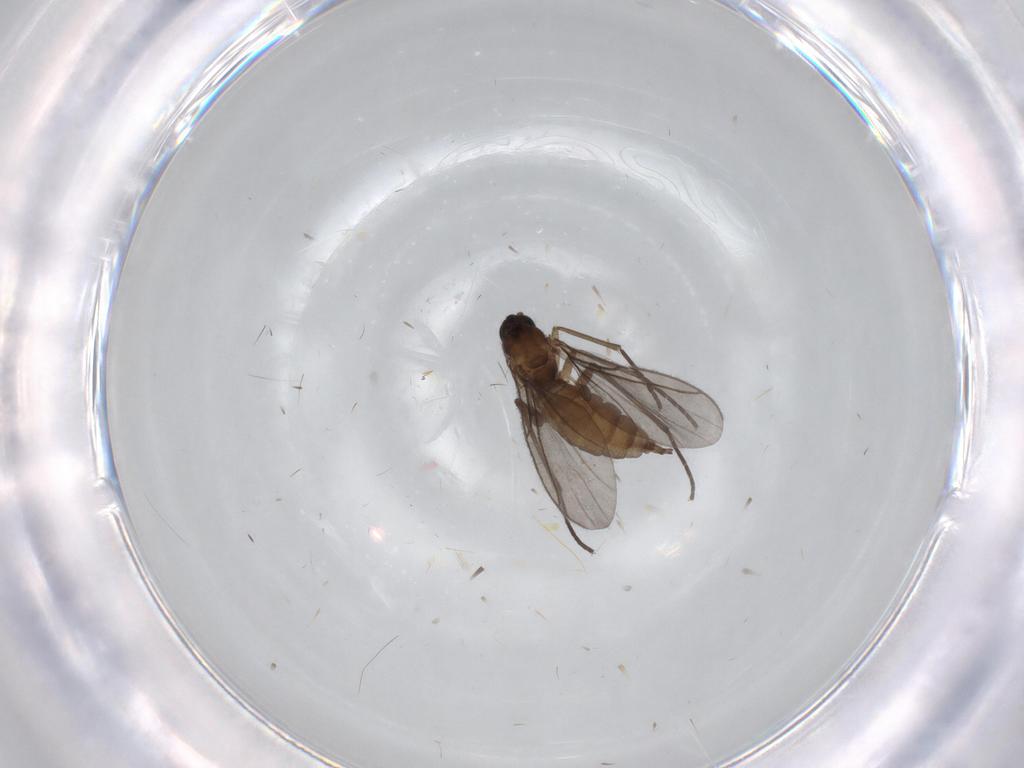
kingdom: Animalia
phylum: Arthropoda
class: Insecta
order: Diptera
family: Sciaridae
